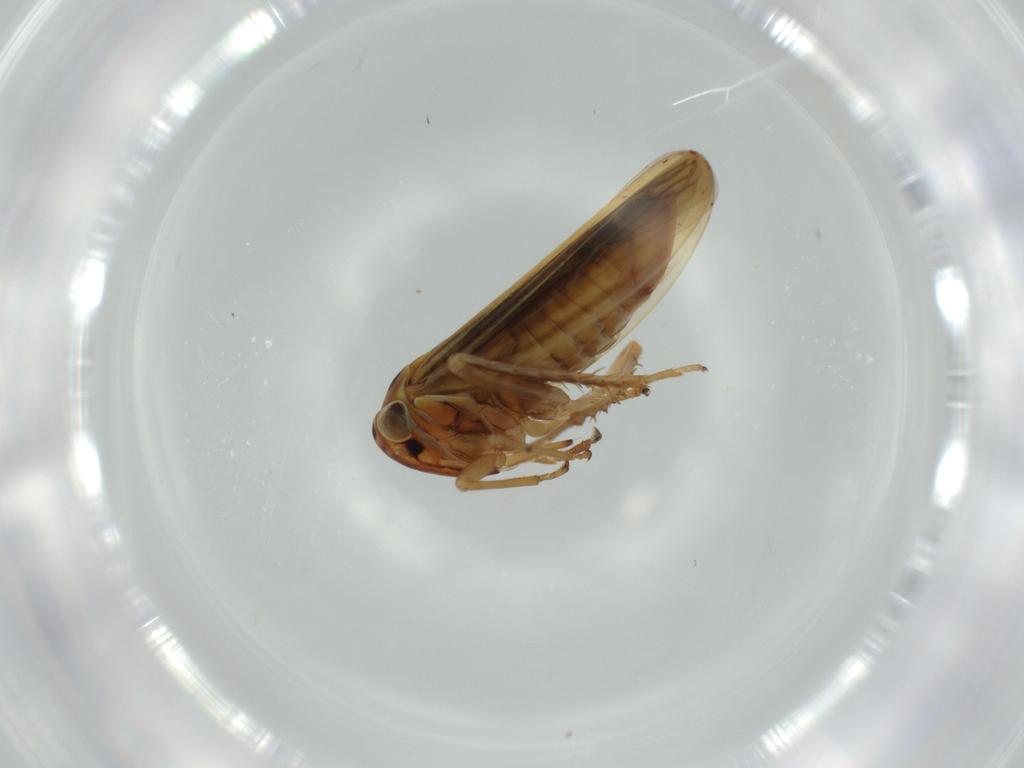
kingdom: Animalia
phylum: Arthropoda
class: Insecta
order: Hemiptera
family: Cicadellidae
